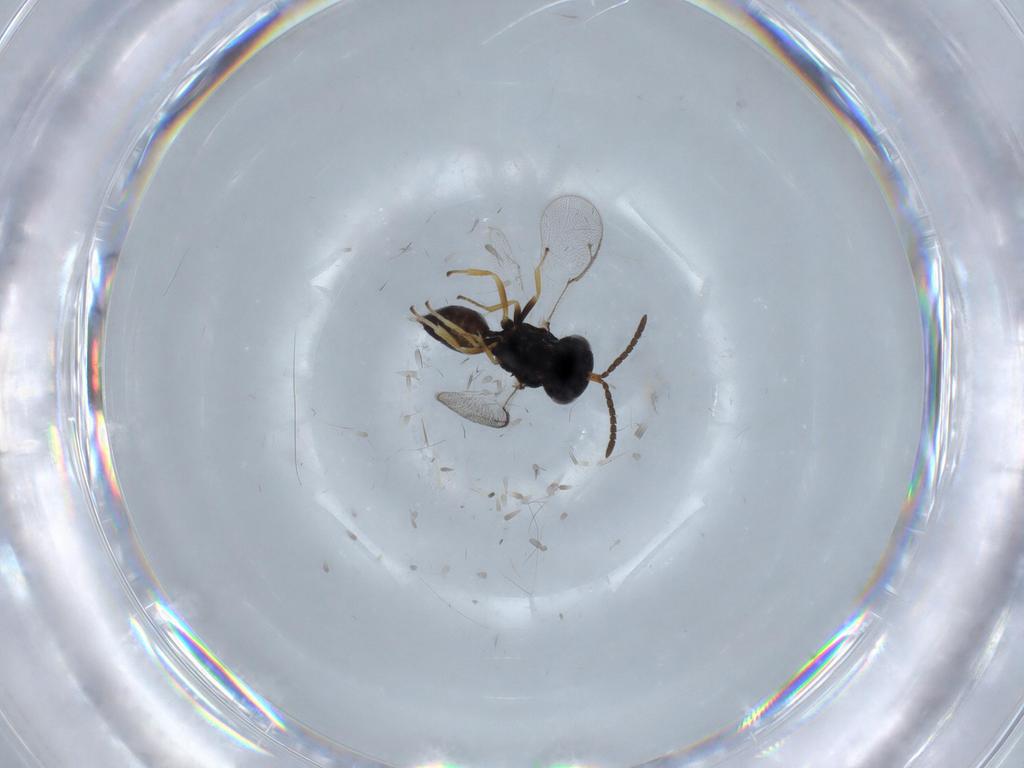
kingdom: Animalia
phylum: Arthropoda
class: Insecta
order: Hymenoptera
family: Pteromalidae
